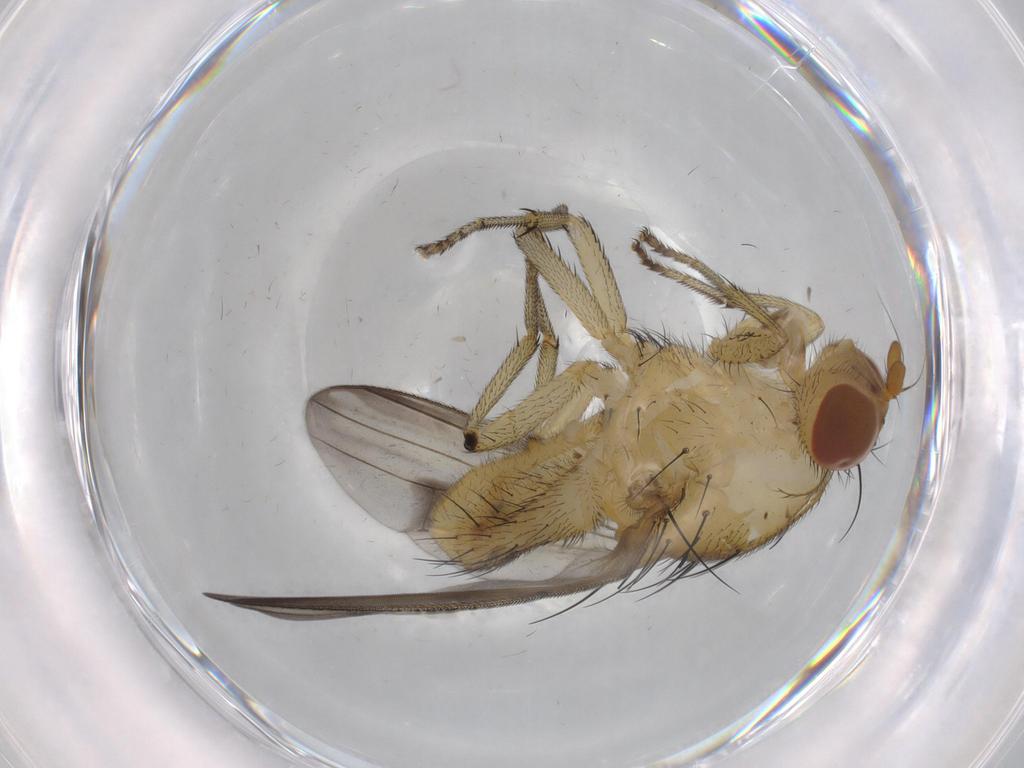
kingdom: Animalia
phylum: Arthropoda
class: Insecta
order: Diptera
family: Lauxaniidae
